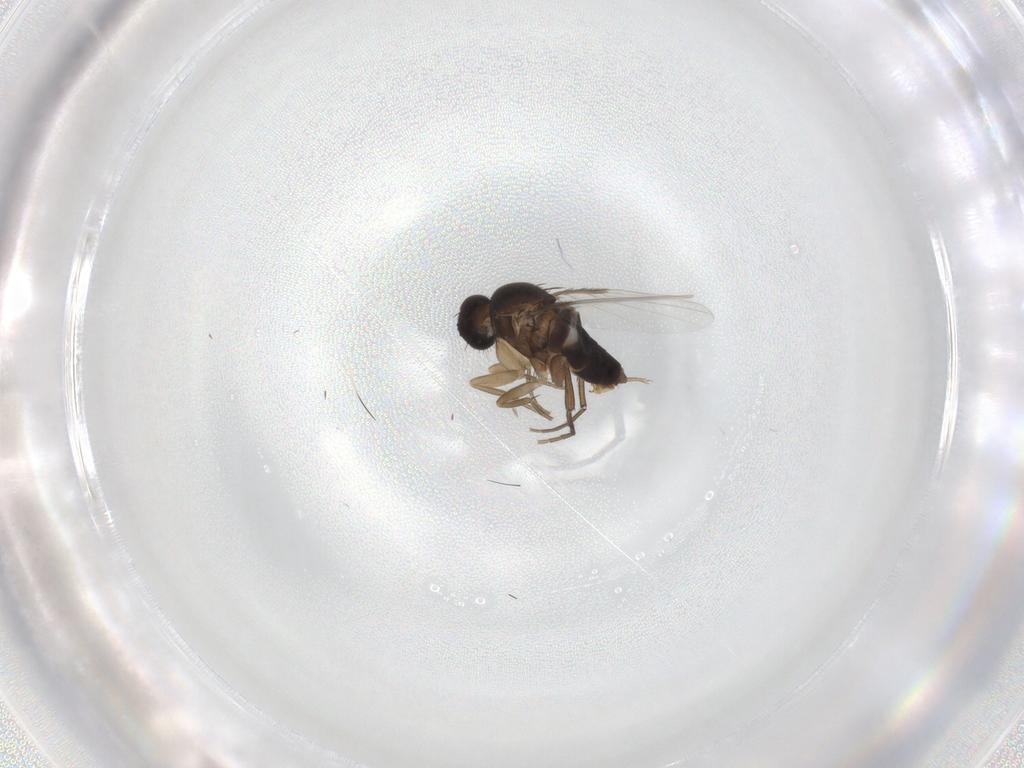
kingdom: Animalia
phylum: Arthropoda
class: Insecta
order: Diptera
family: Phoridae
